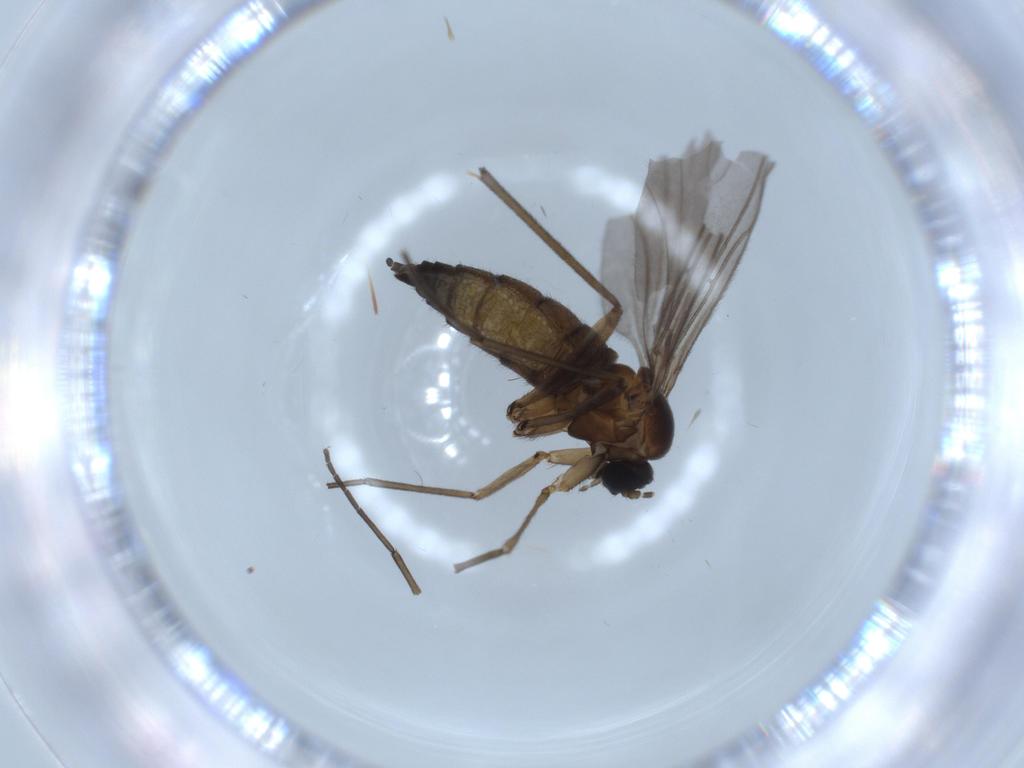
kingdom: Animalia
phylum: Arthropoda
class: Insecta
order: Diptera
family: Sciaridae
